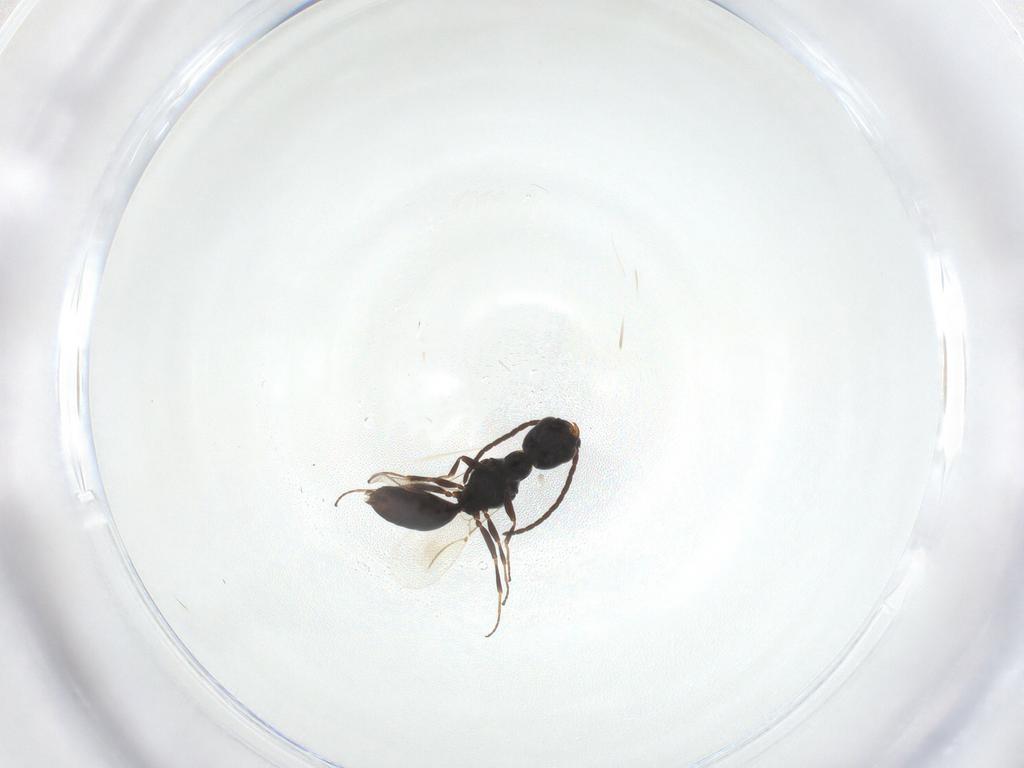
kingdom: Animalia
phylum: Arthropoda
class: Insecta
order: Hymenoptera
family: Bethylidae
